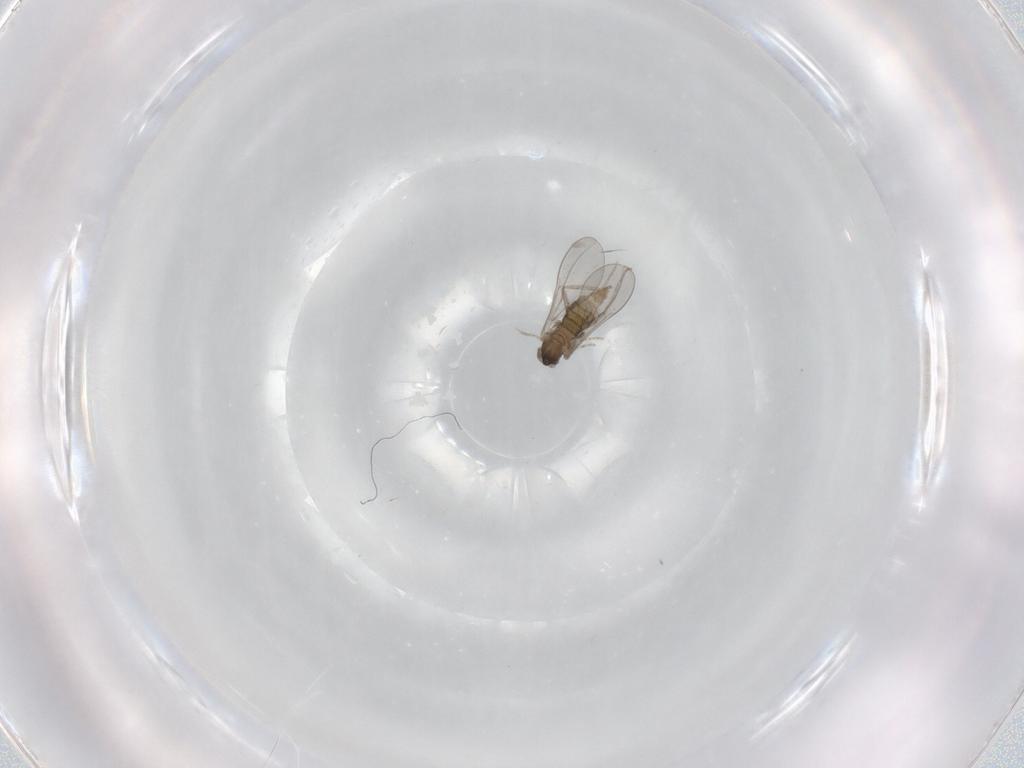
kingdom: Animalia
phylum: Arthropoda
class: Insecta
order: Diptera
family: Cecidomyiidae
